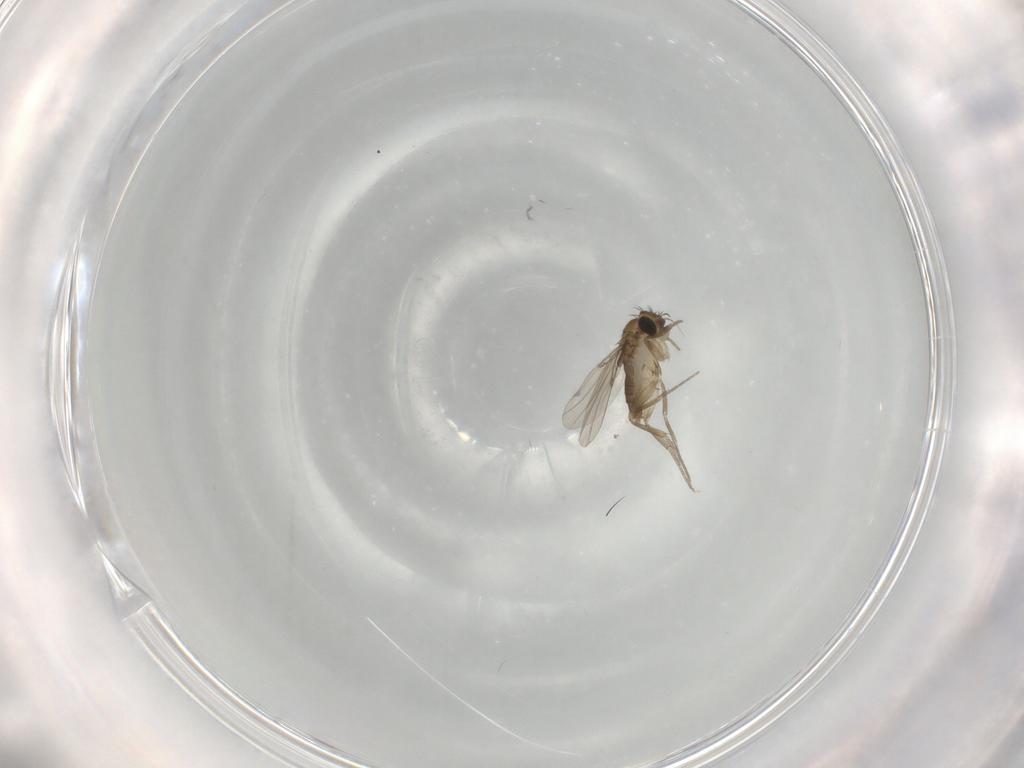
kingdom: Animalia
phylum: Arthropoda
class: Insecta
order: Diptera
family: Phoridae
